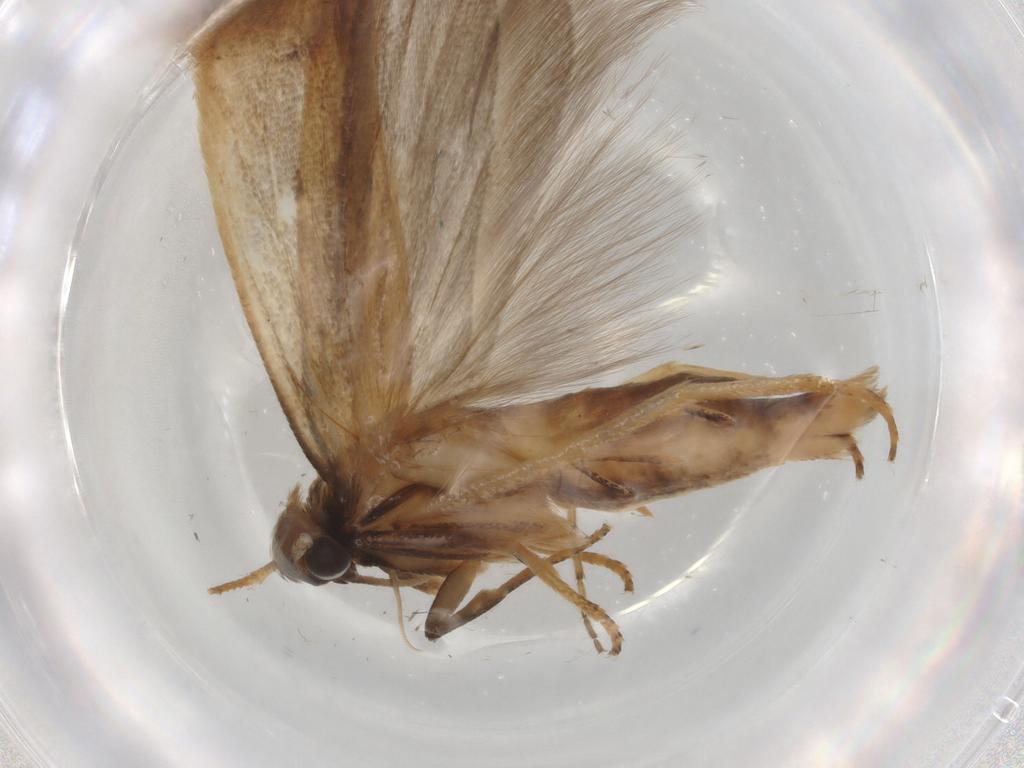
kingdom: Animalia
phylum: Arthropoda
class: Insecta
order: Lepidoptera
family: Gelechiidae
